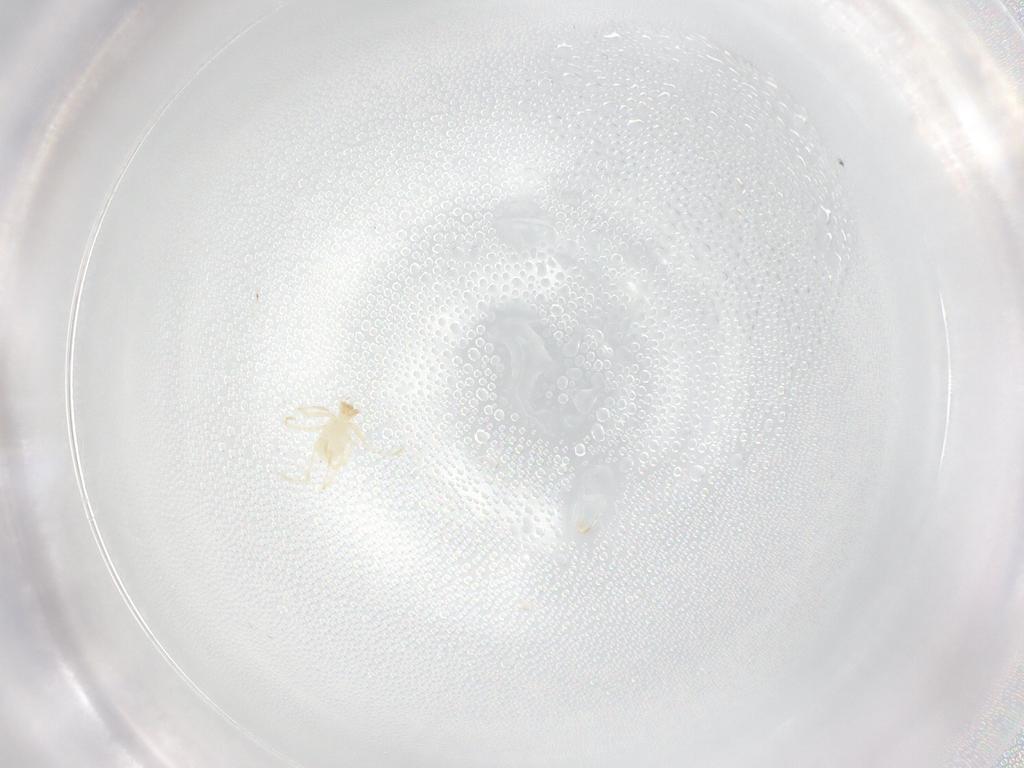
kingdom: Animalia
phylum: Arthropoda
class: Arachnida
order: Trombidiformes
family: Erythraeidae
